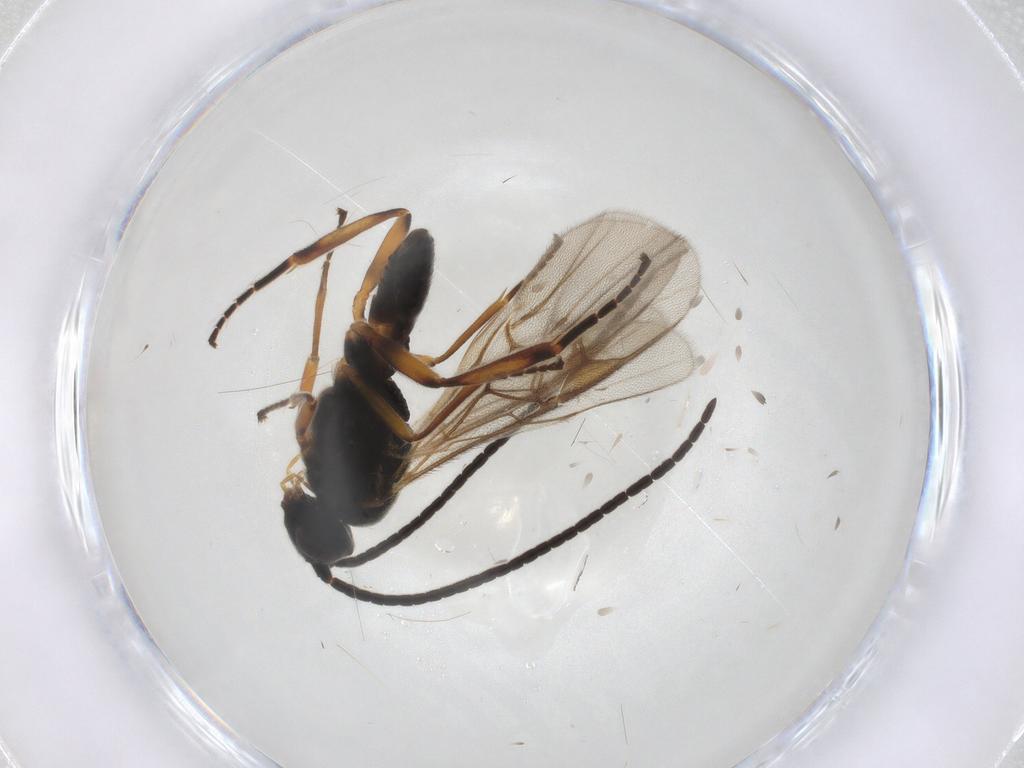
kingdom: Animalia
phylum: Arthropoda
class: Insecta
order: Hymenoptera
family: Braconidae
